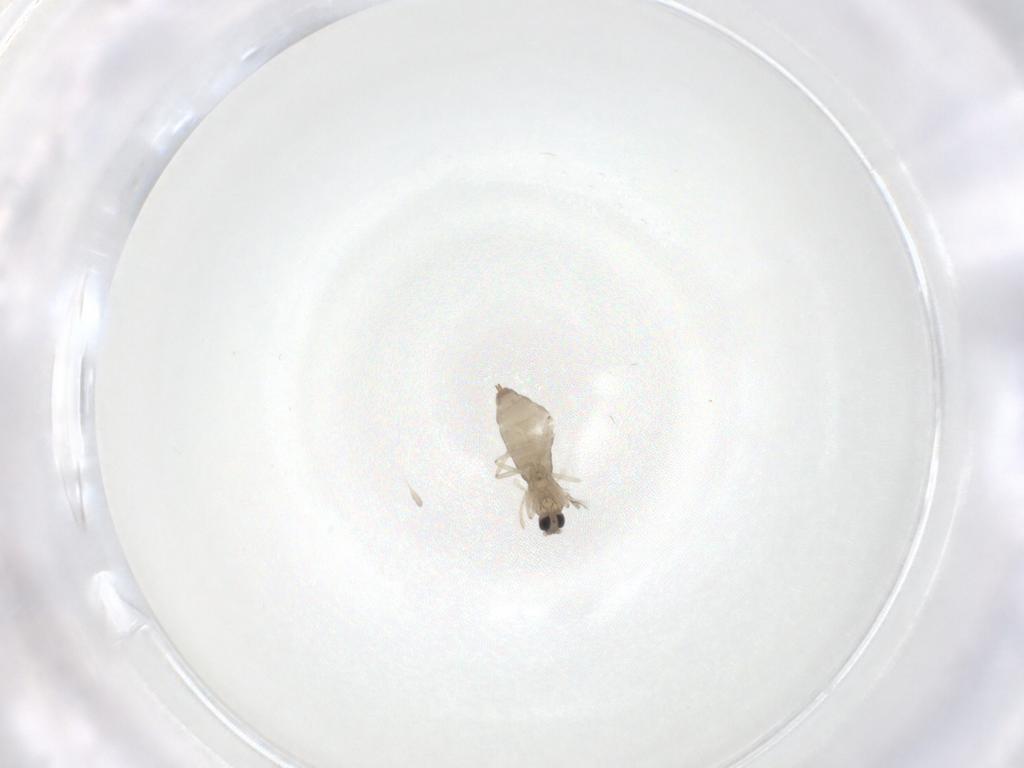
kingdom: Animalia
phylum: Arthropoda
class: Insecta
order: Diptera
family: Cecidomyiidae
